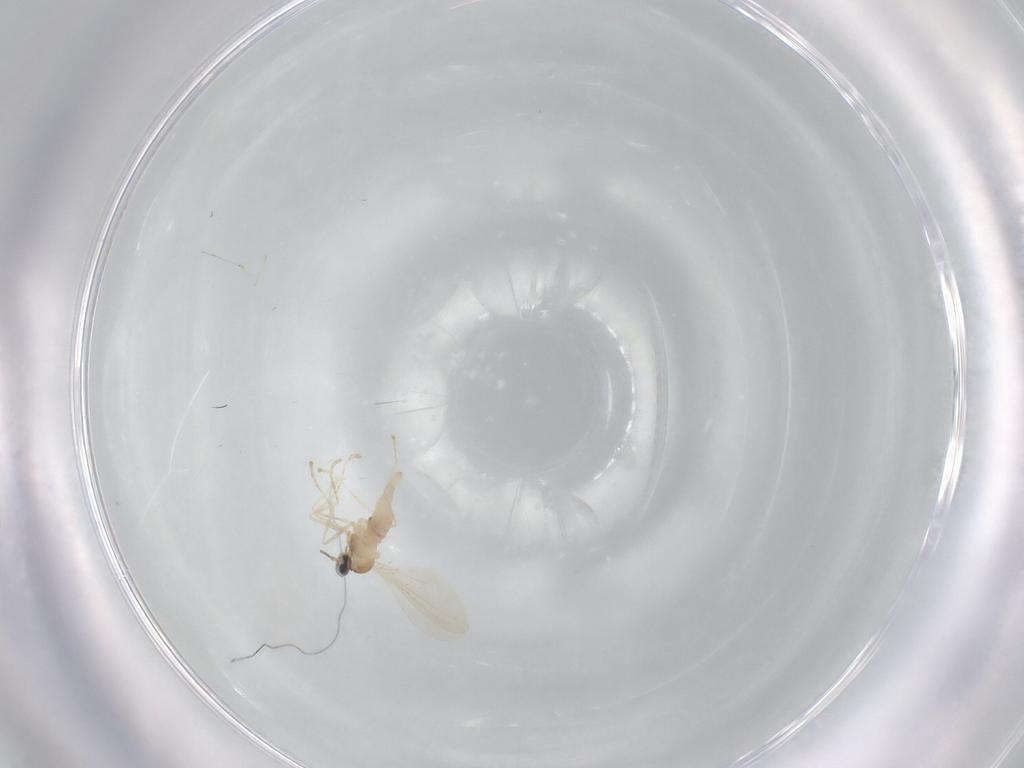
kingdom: Animalia
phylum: Arthropoda
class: Insecta
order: Diptera
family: Cecidomyiidae
